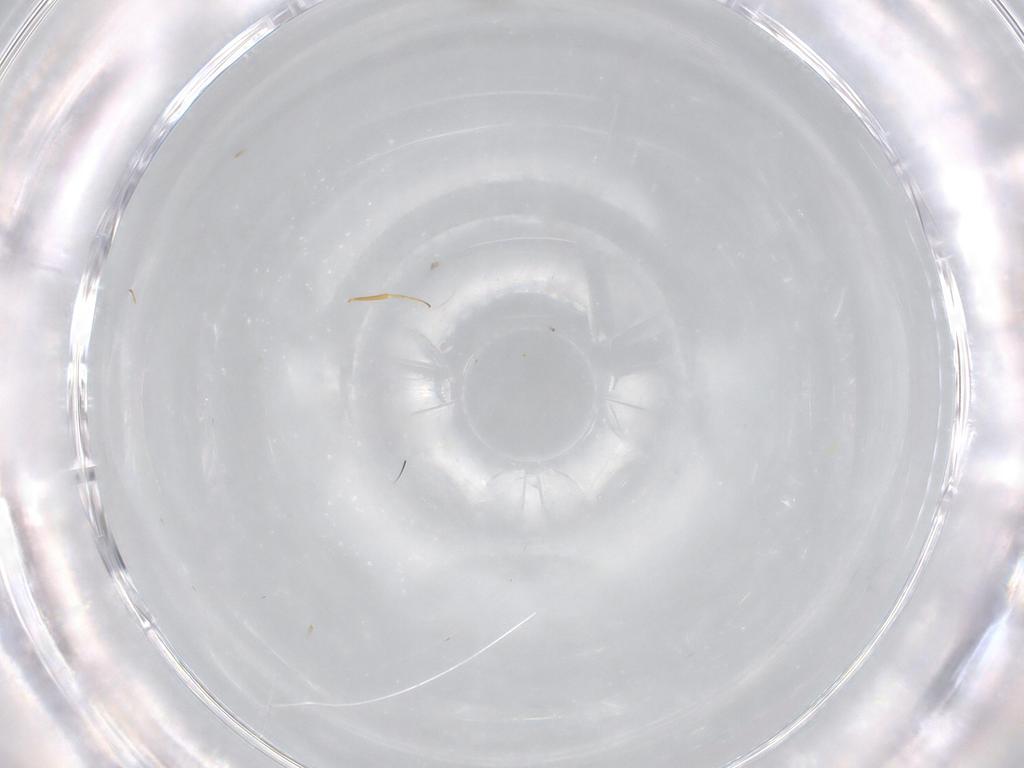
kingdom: Animalia
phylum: Arthropoda
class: Insecta
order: Hymenoptera
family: Scelionidae
